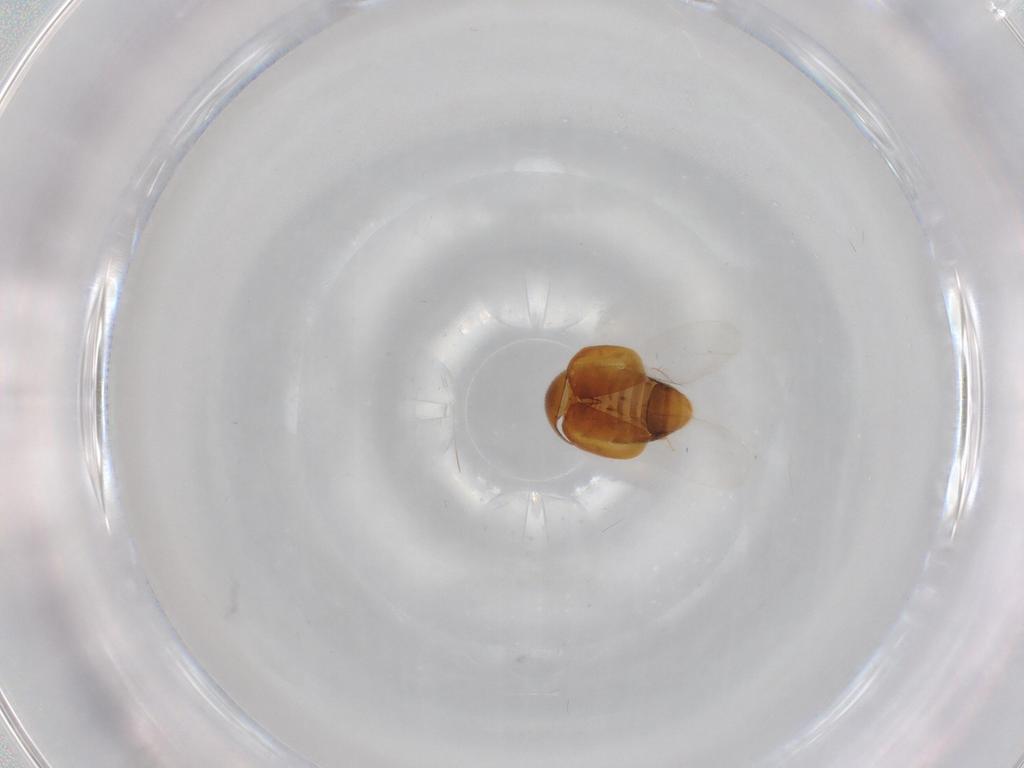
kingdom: Animalia
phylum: Arthropoda
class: Insecta
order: Coleoptera
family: Corylophidae
